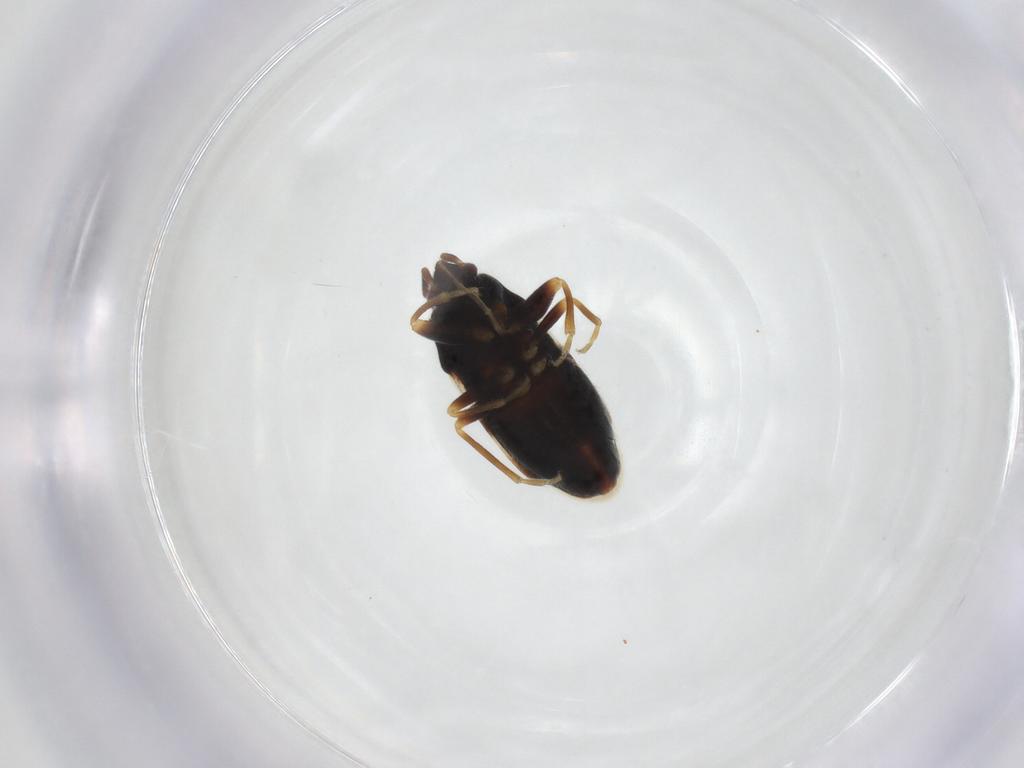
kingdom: Animalia
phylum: Arthropoda
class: Insecta
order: Hemiptera
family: Rhyparochromidae
